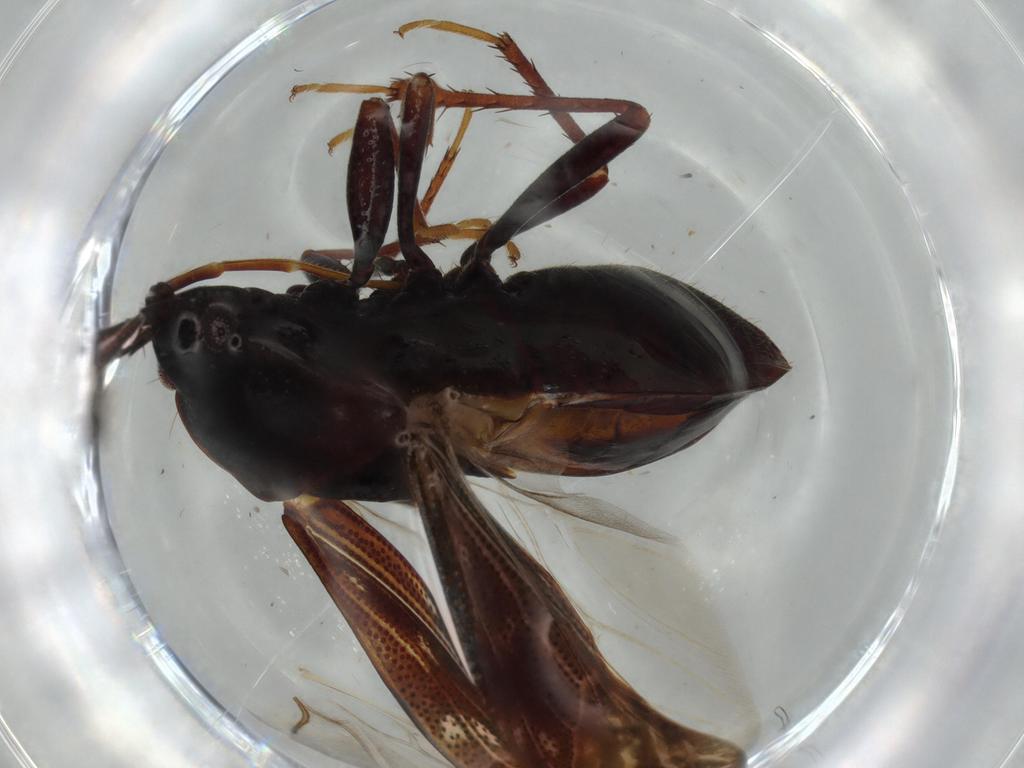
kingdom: Animalia
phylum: Arthropoda
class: Insecta
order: Hemiptera
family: Rhyparochromidae
